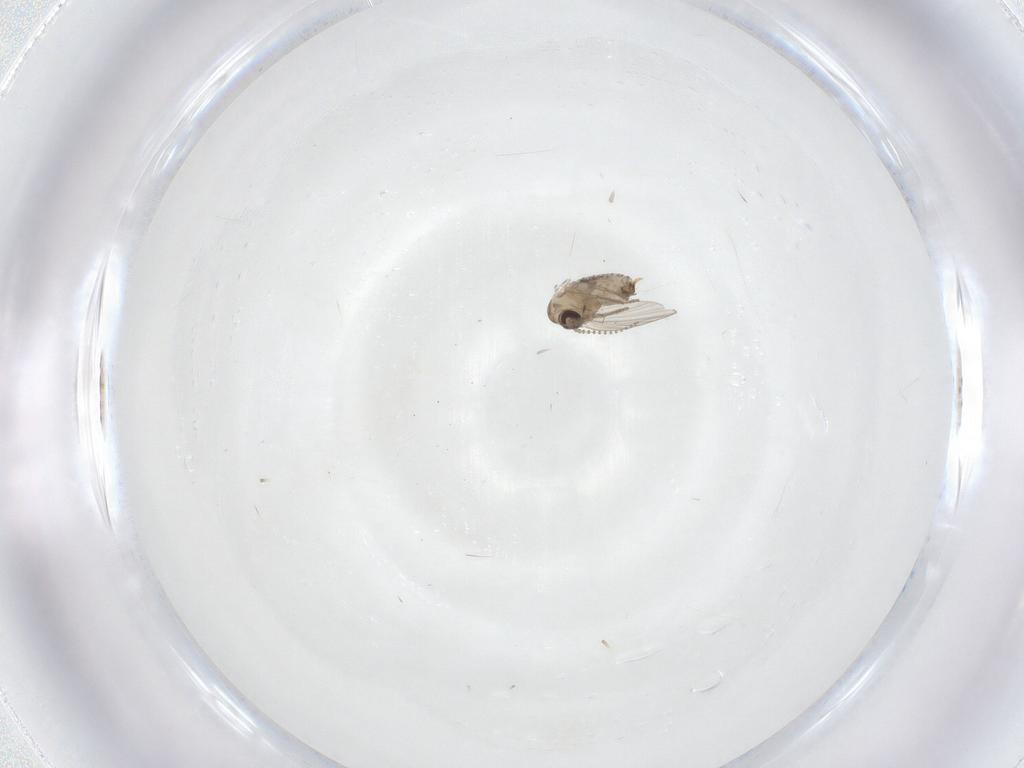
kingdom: Animalia
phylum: Arthropoda
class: Insecta
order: Diptera
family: Psychodidae
